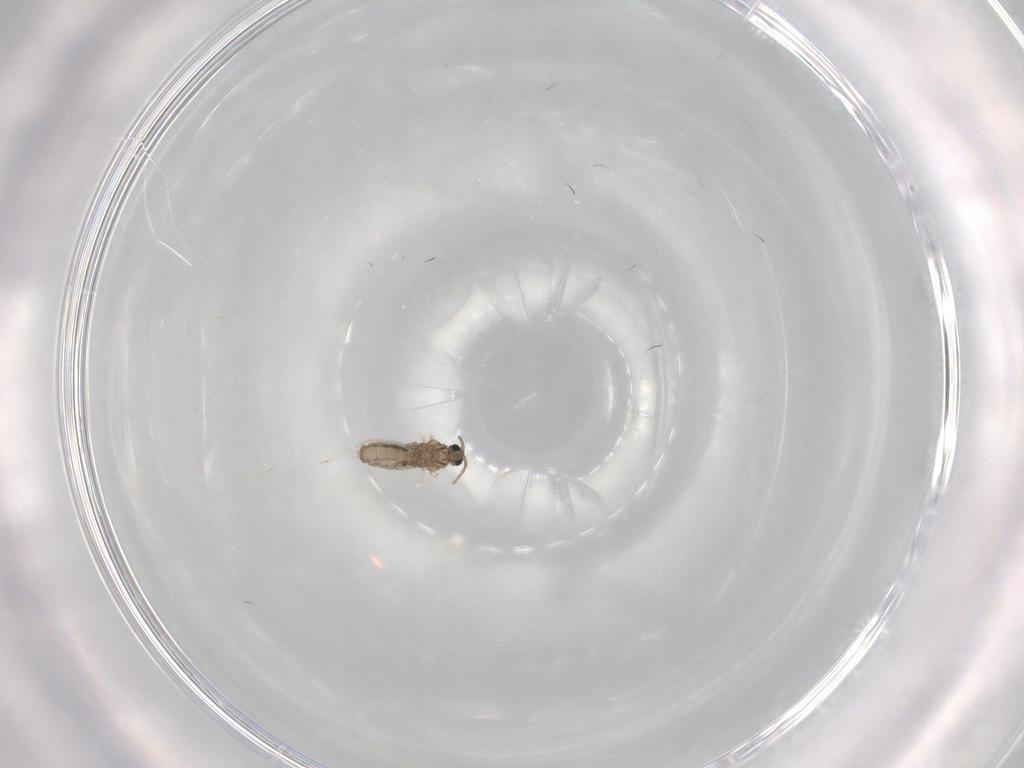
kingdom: Animalia
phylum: Arthropoda
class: Insecta
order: Diptera
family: Cecidomyiidae
